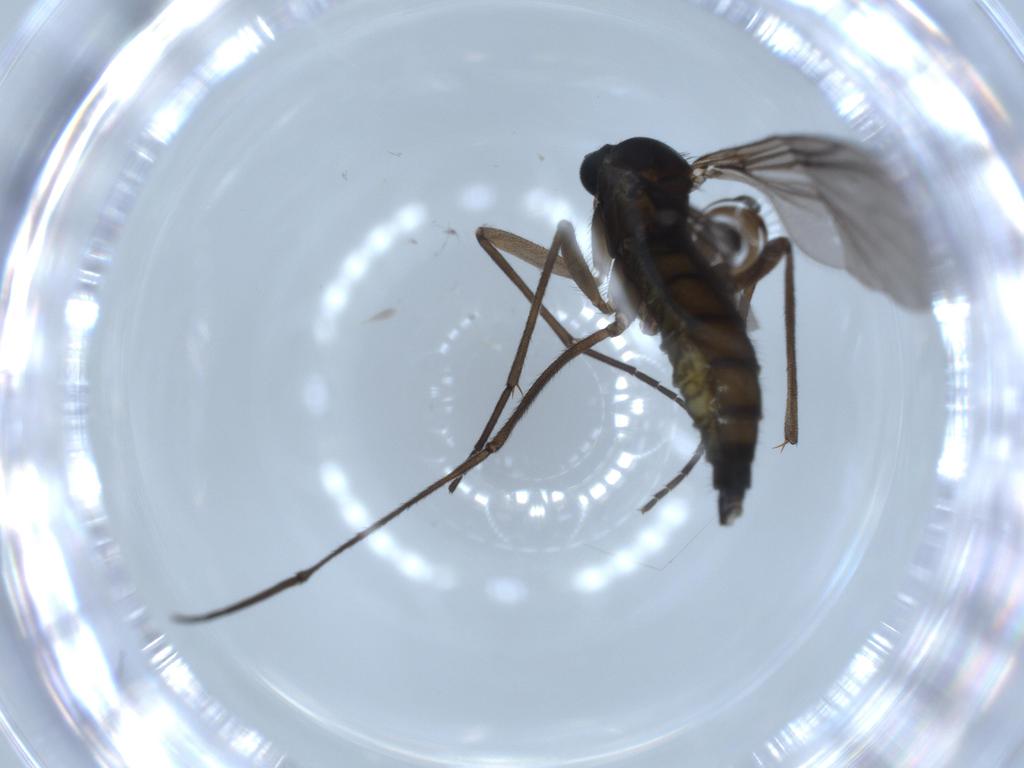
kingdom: Animalia
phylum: Arthropoda
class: Insecta
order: Diptera
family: Sciaridae
